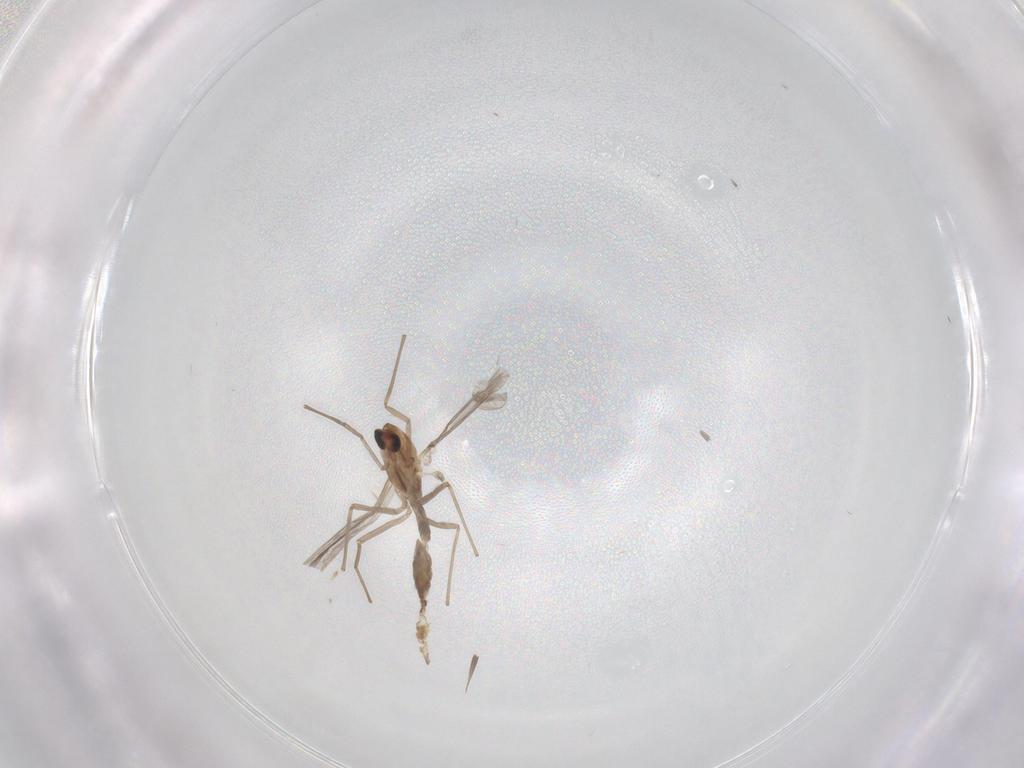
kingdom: Animalia
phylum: Arthropoda
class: Insecta
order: Diptera
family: Chironomidae
